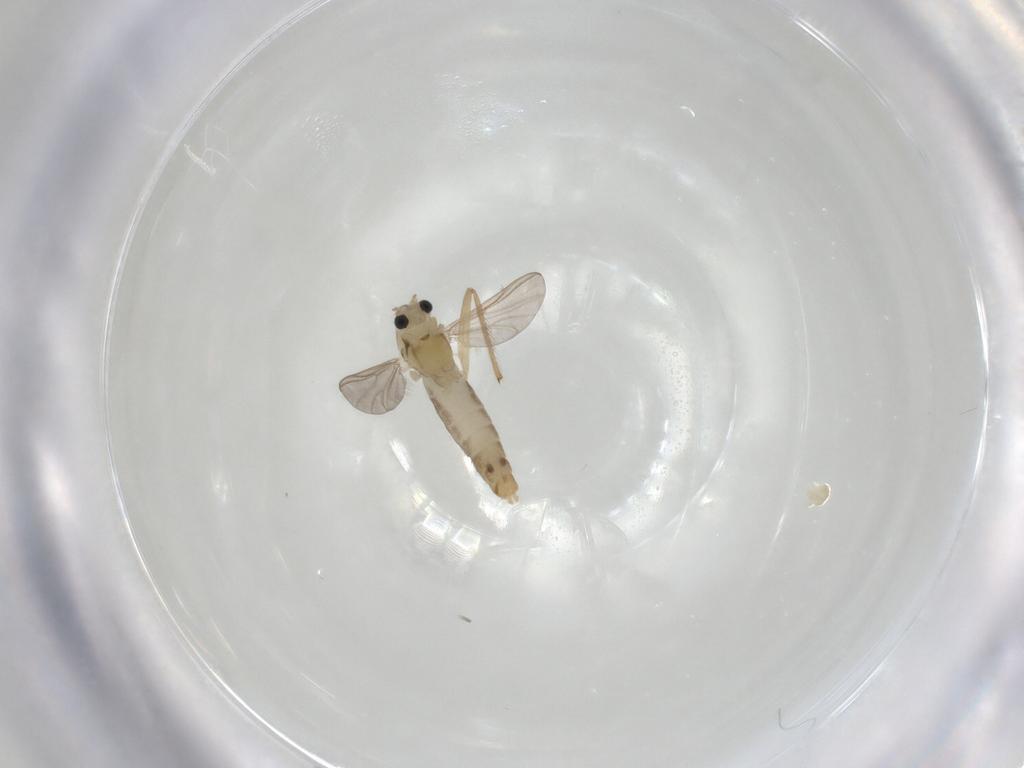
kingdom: Animalia
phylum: Arthropoda
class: Insecta
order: Diptera
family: Chironomidae
